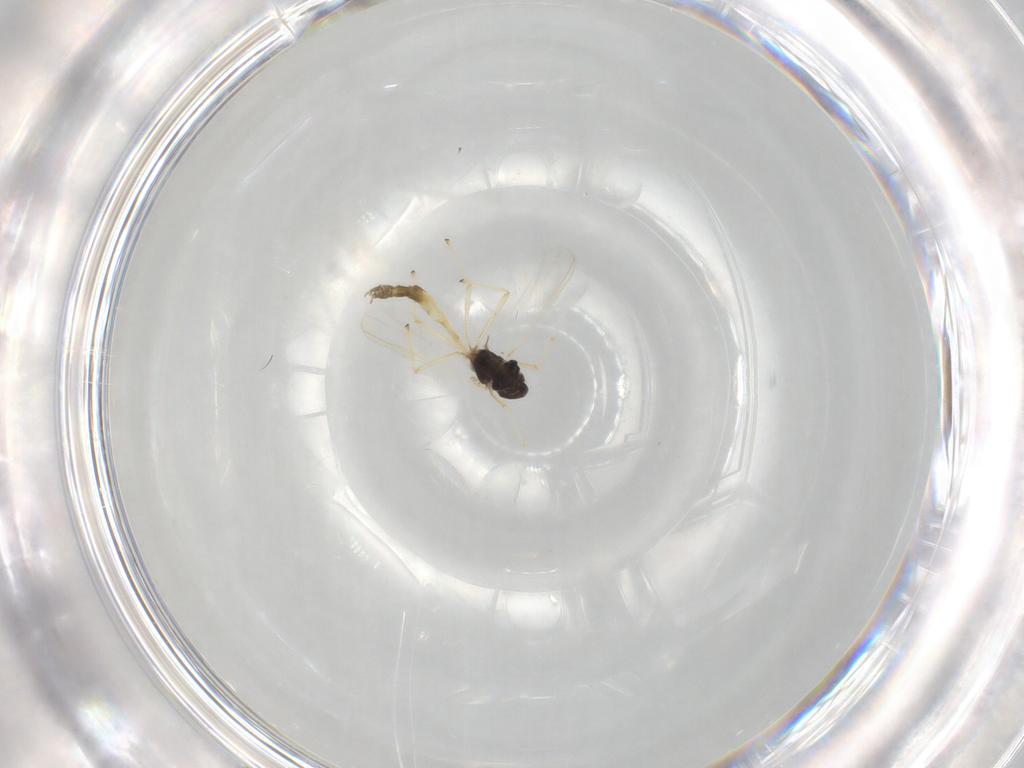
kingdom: Animalia
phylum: Arthropoda
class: Insecta
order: Diptera
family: Chironomidae
